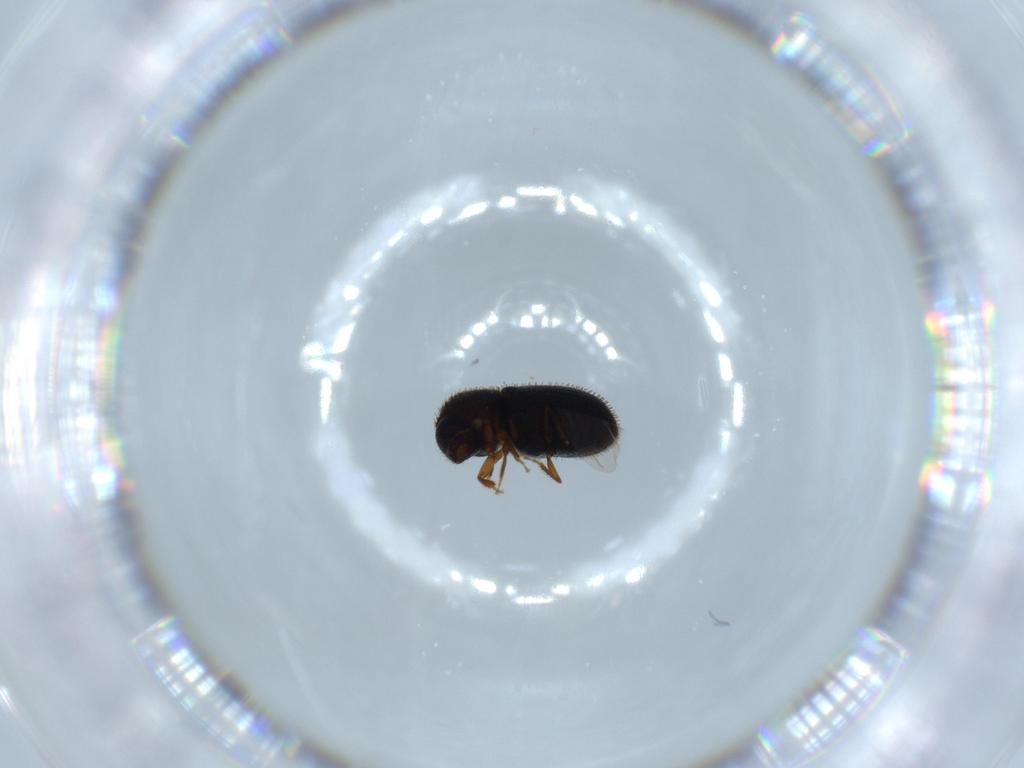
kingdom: Animalia
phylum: Arthropoda
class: Insecta
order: Coleoptera
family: Curculionidae
